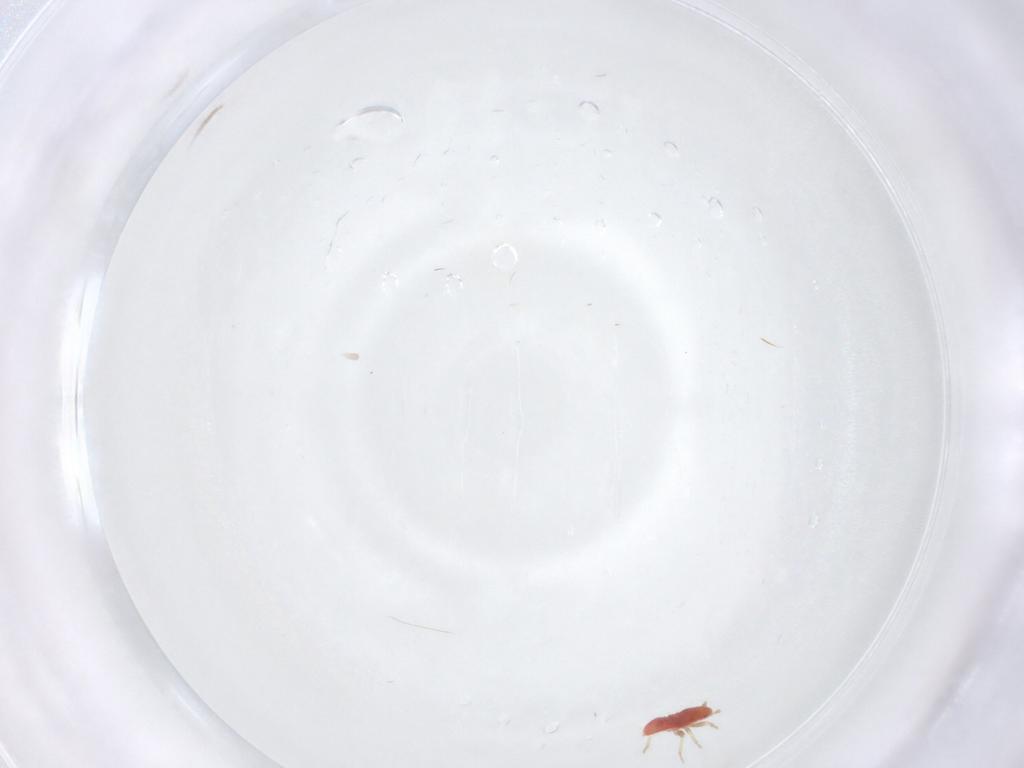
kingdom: Animalia
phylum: Arthropoda
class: Insecta
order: Hemiptera
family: Anthocoridae
